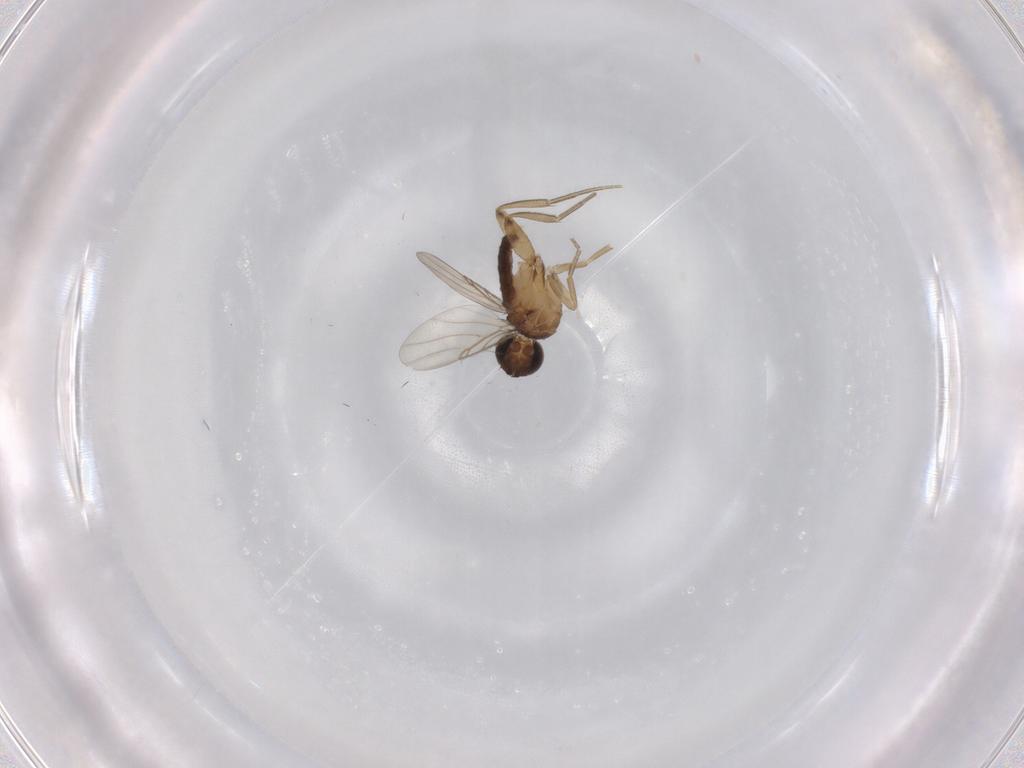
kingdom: Animalia
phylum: Arthropoda
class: Insecta
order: Diptera
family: Phoridae
